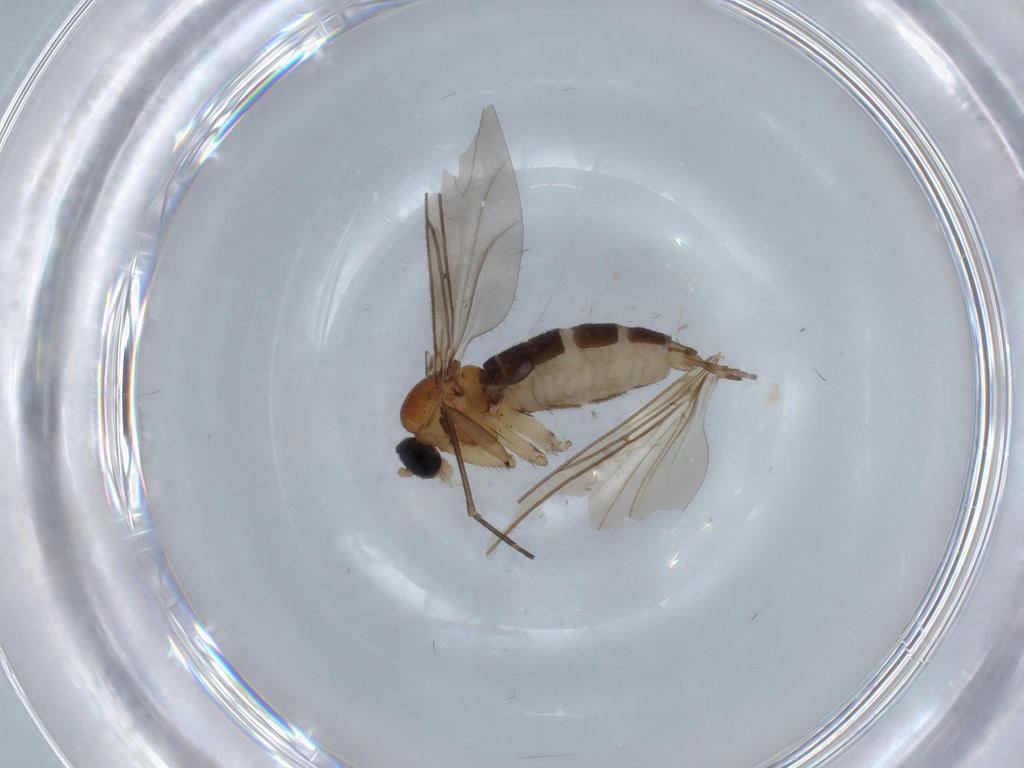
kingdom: Animalia
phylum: Arthropoda
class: Insecta
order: Diptera
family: Sciaridae
